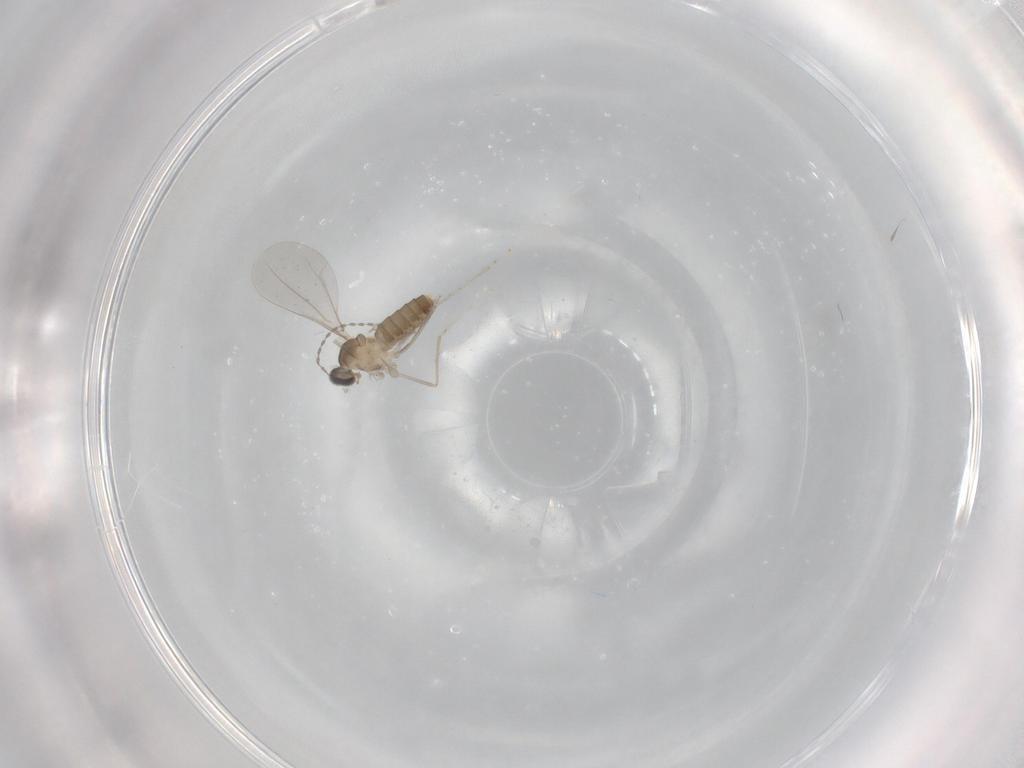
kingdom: Animalia
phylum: Arthropoda
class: Insecta
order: Diptera
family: Cecidomyiidae
